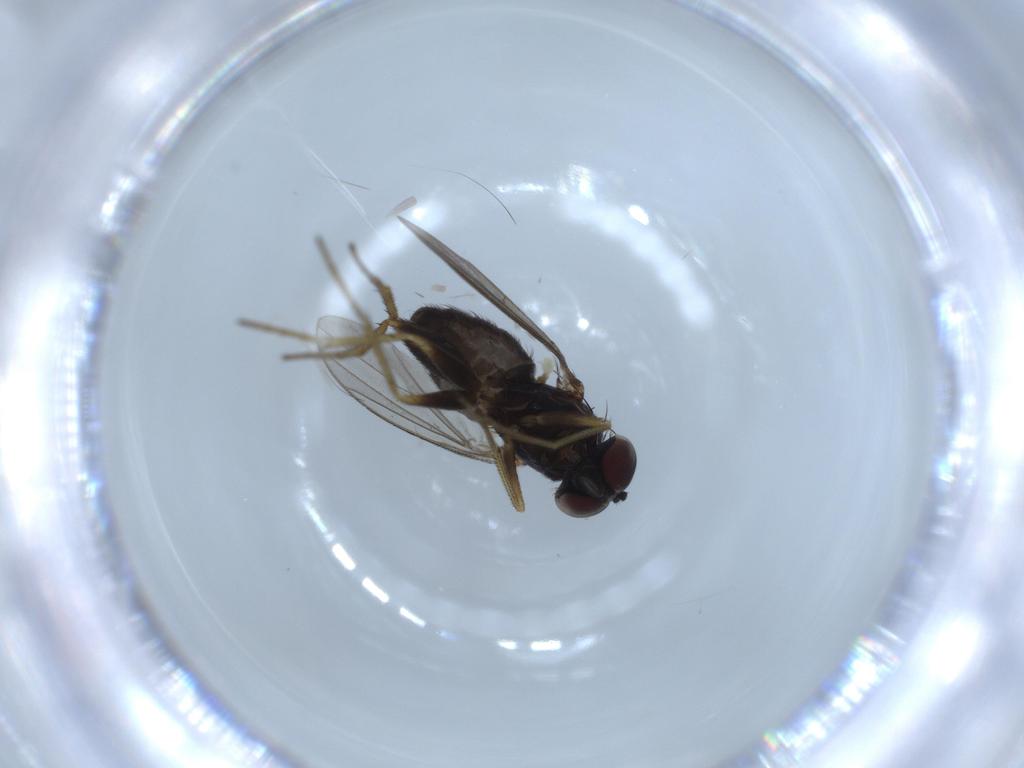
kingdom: Animalia
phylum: Arthropoda
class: Insecta
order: Diptera
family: Dolichopodidae
